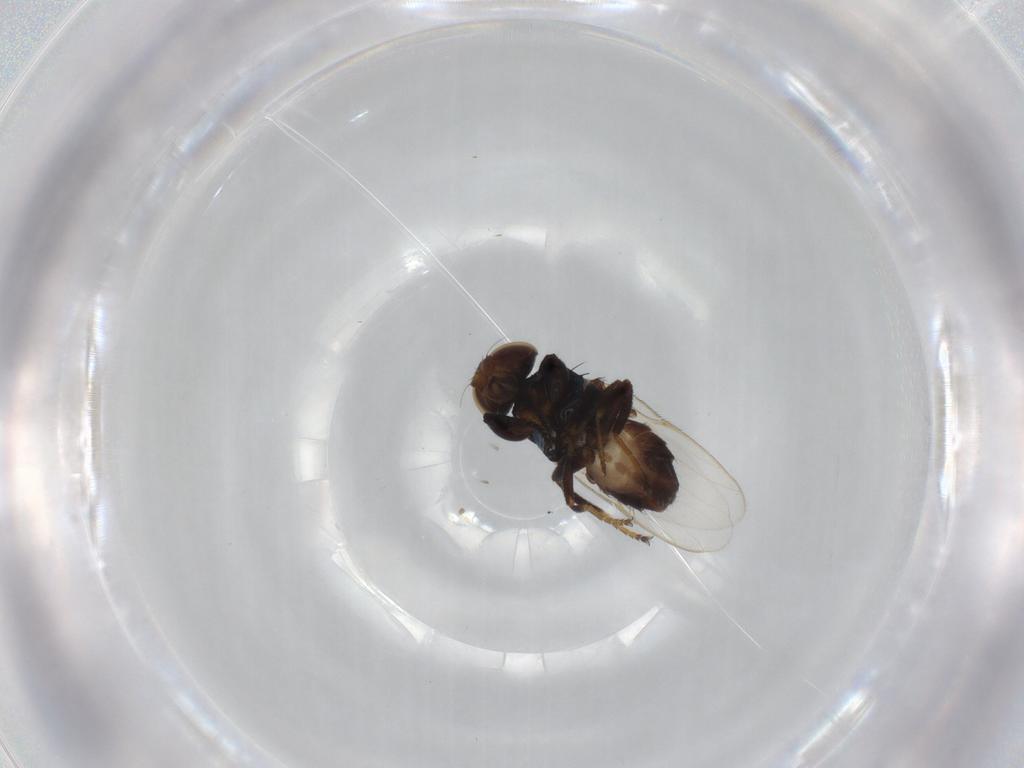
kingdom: Animalia
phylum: Arthropoda
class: Insecta
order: Diptera
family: Chloropidae
